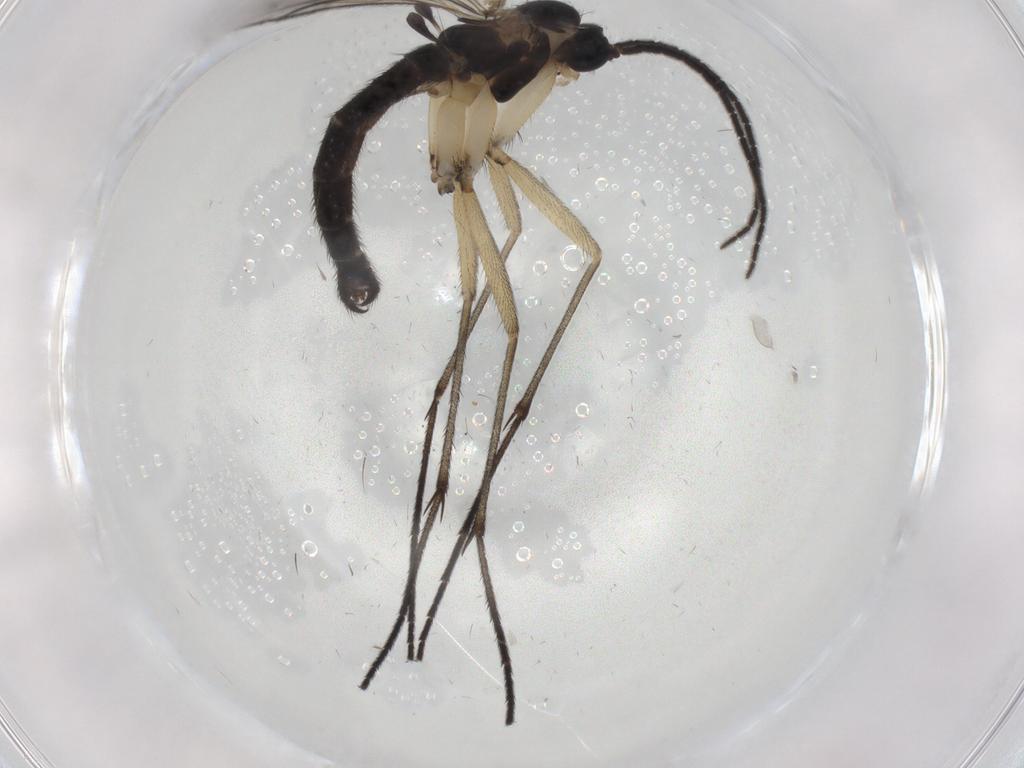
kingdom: Animalia
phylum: Arthropoda
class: Insecta
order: Diptera
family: Sciaridae
